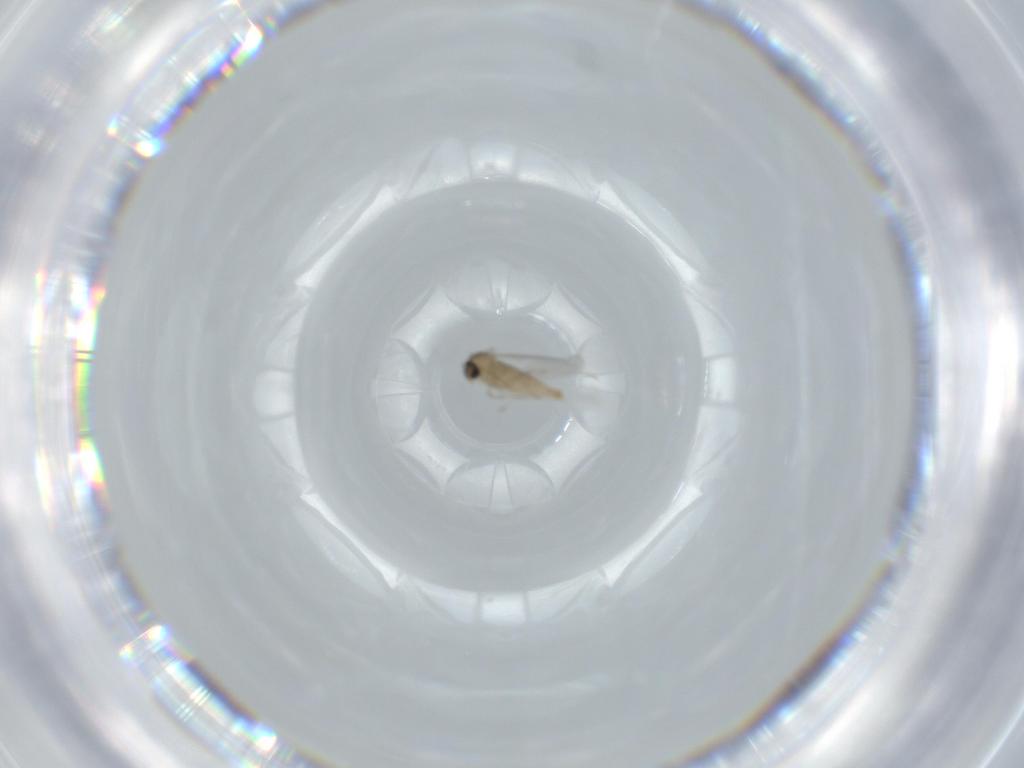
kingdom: Animalia
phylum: Arthropoda
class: Insecta
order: Diptera
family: Cecidomyiidae
